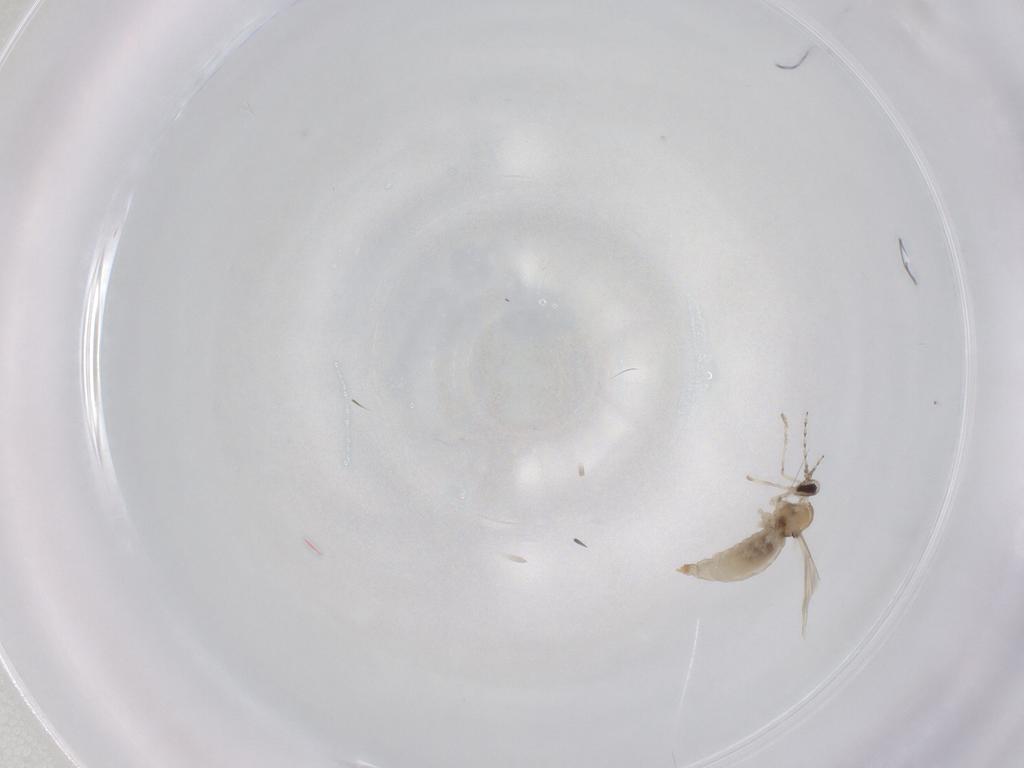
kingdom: Animalia
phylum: Arthropoda
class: Insecta
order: Diptera
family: Dolichopodidae
